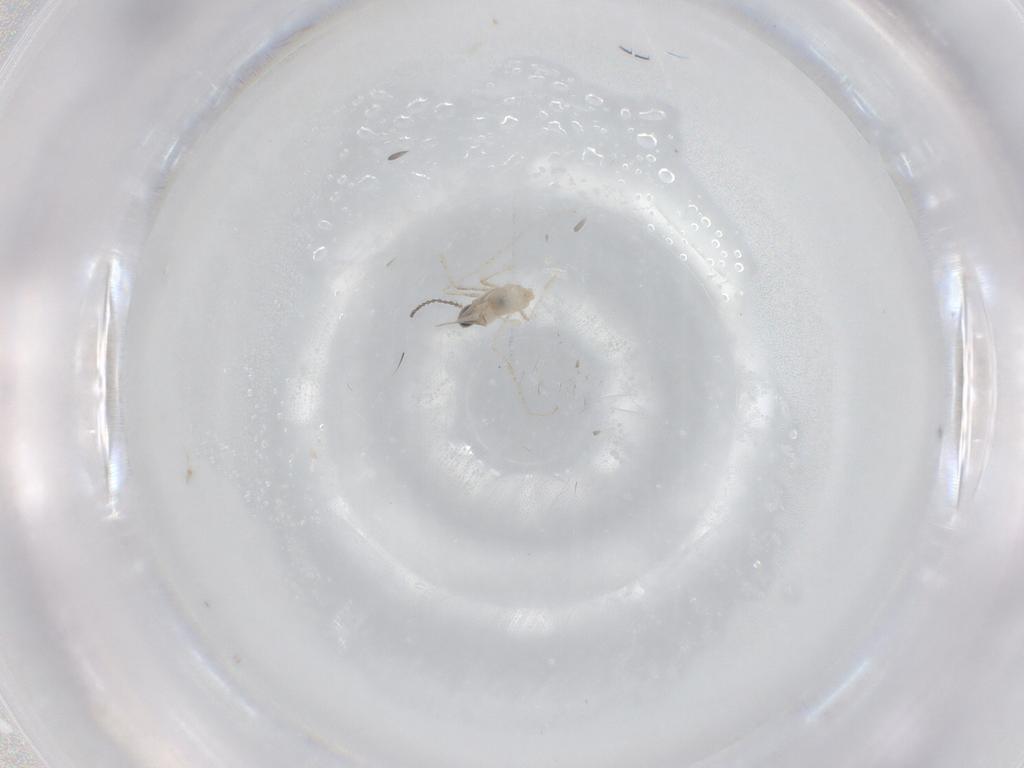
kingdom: Animalia
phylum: Arthropoda
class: Insecta
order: Diptera
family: Cecidomyiidae
